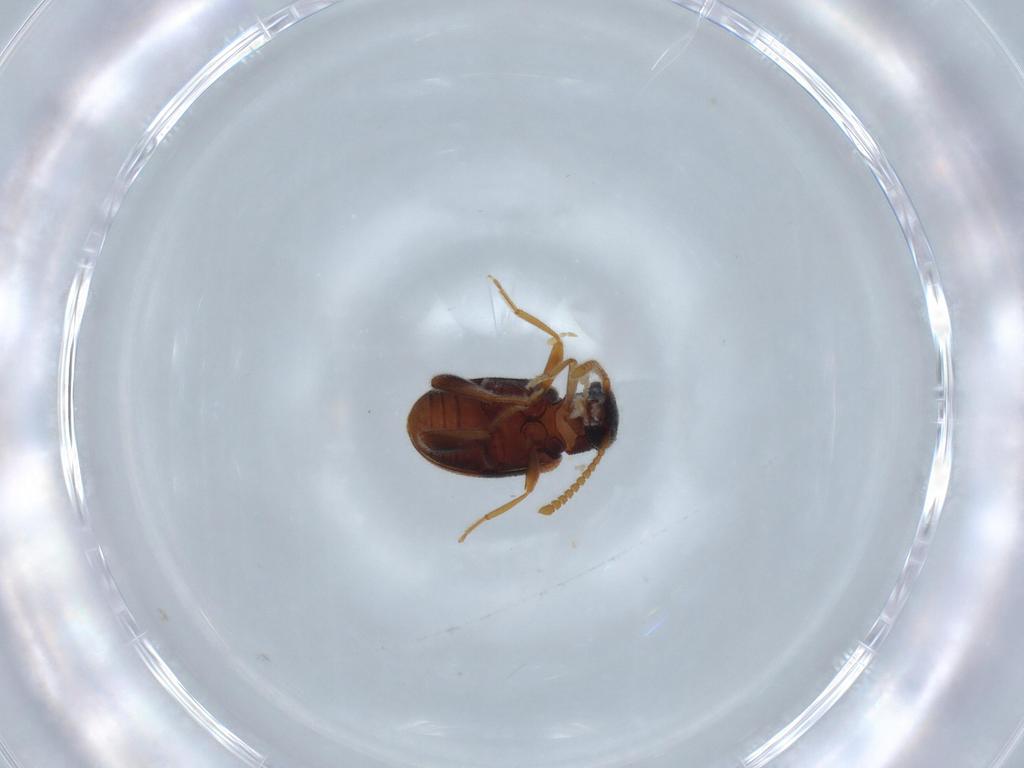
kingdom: Animalia
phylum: Arthropoda
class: Insecta
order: Coleoptera
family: Aderidae
